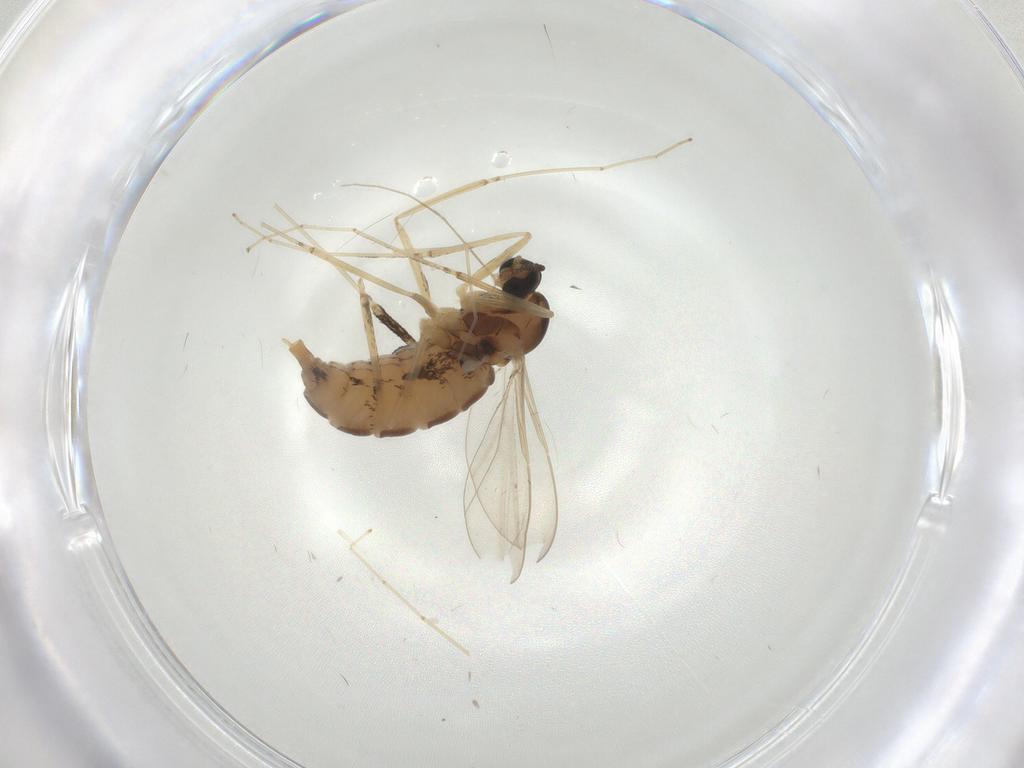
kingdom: Animalia
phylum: Arthropoda
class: Insecta
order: Diptera
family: Cecidomyiidae
